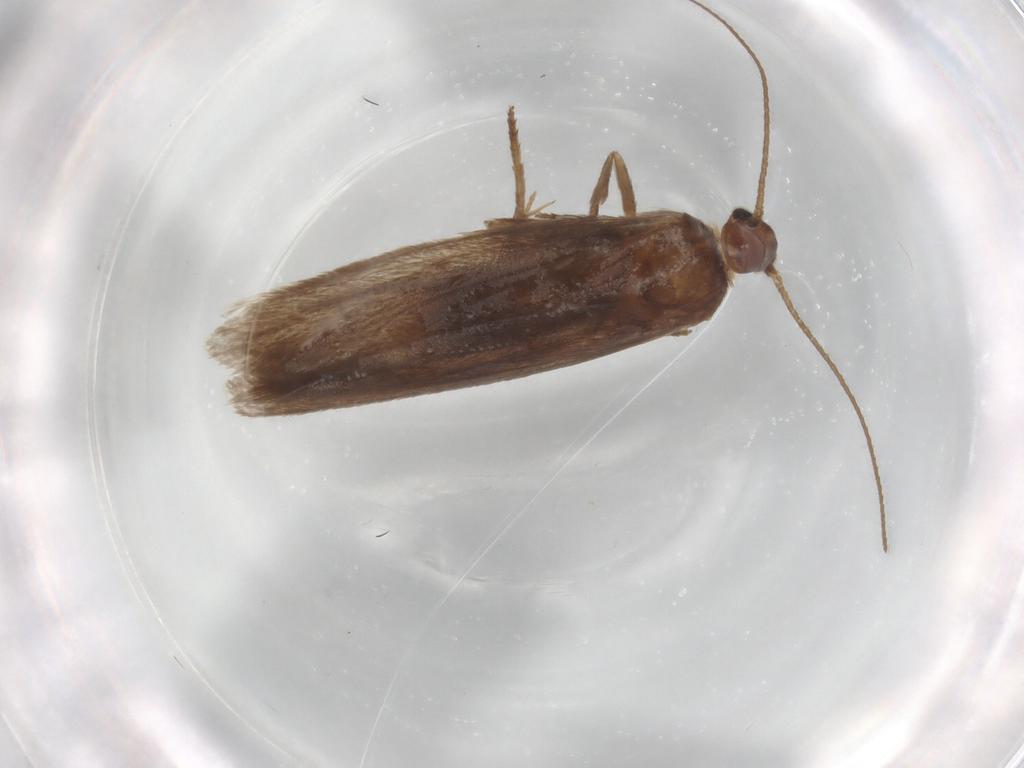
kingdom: Animalia
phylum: Arthropoda
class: Insecta
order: Lepidoptera
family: Limacodidae
